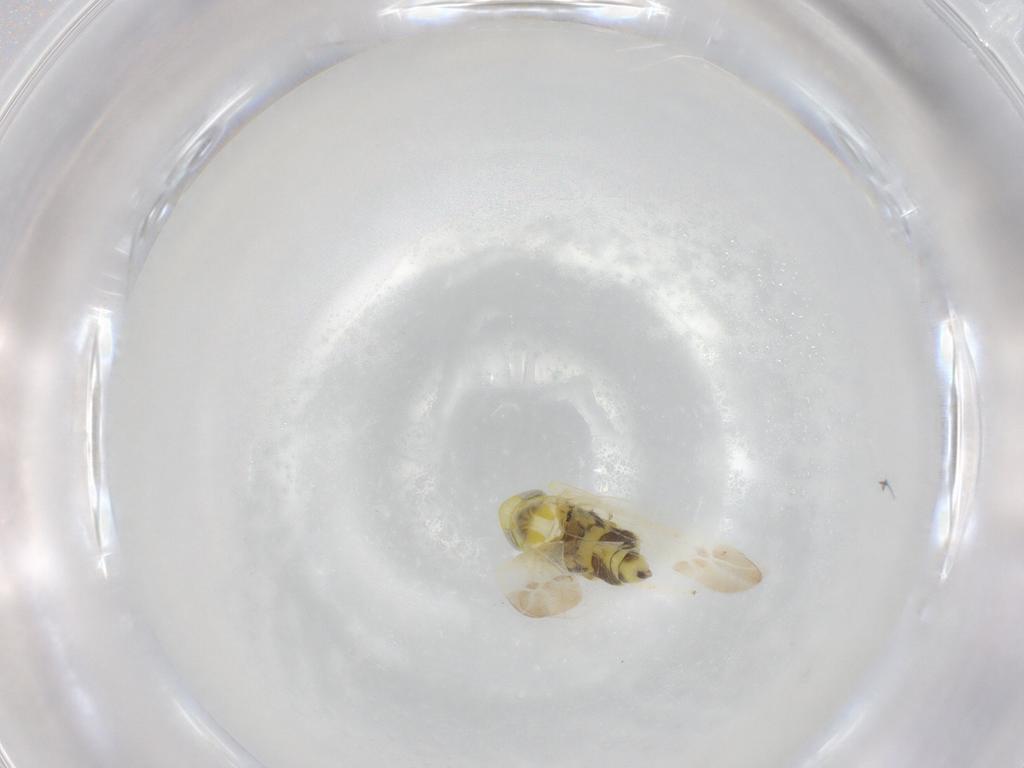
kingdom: Animalia
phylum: Arthropoda
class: Insecta
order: Hemiptera
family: Cicadellidae
